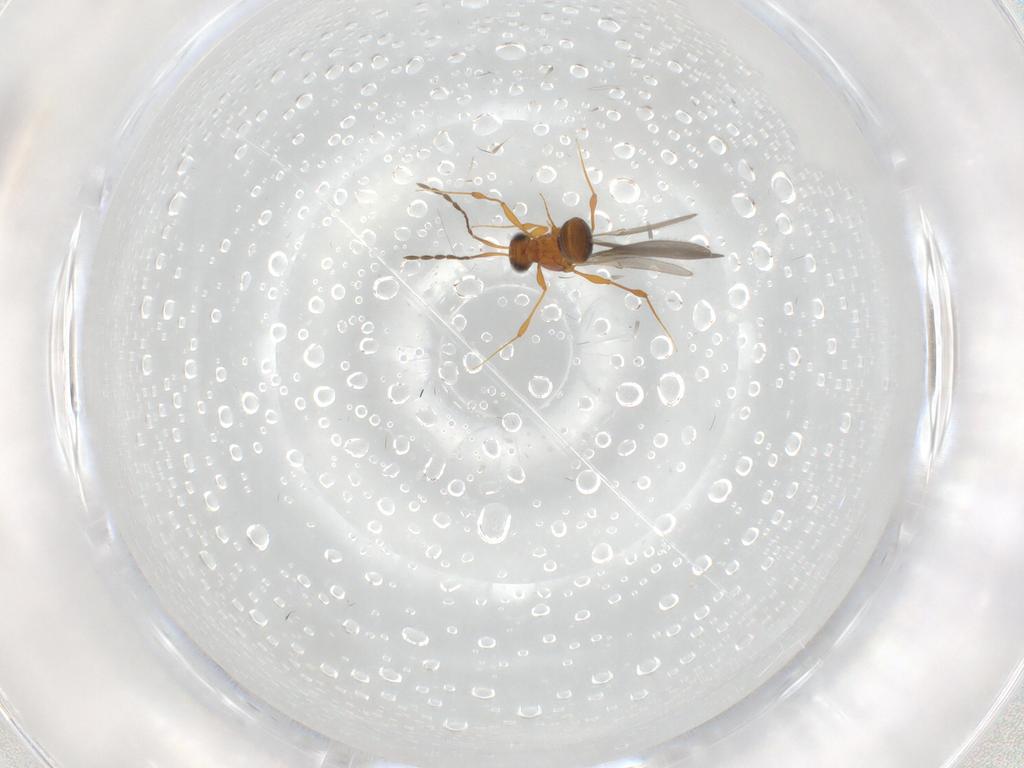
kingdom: Animalia
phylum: Arthropoda
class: Insecta
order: Hymenoptera
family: Platygastridae
